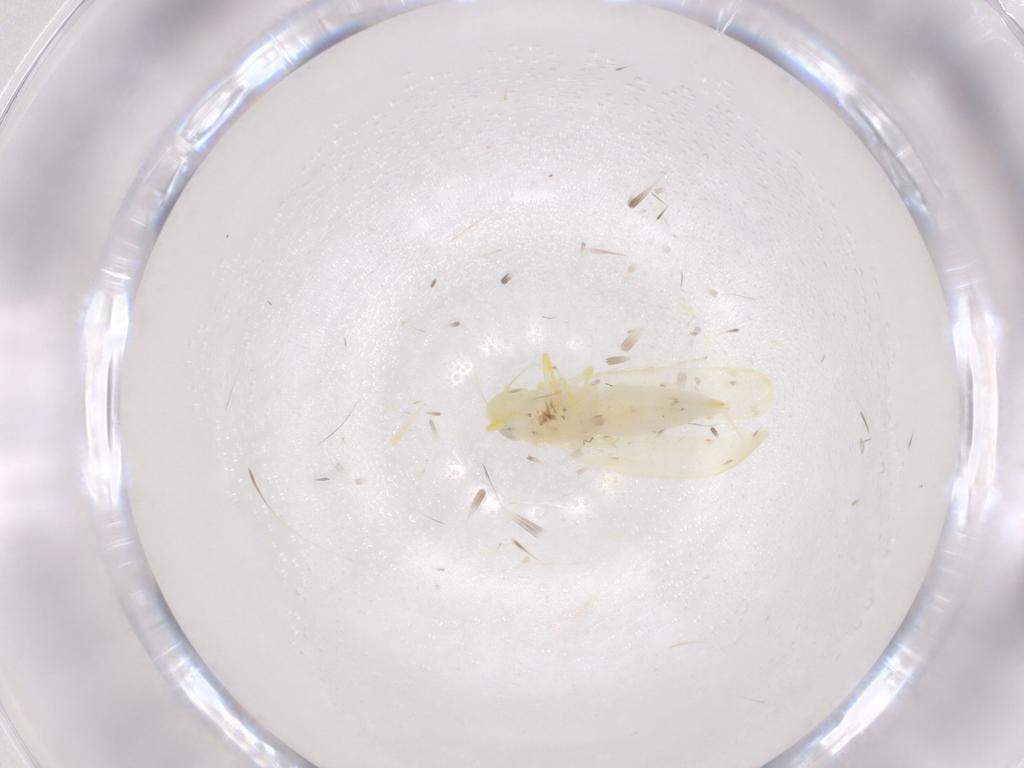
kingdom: Animalia
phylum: Arthropoda
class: Insecta
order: Hemiptera
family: Cicadellidae
